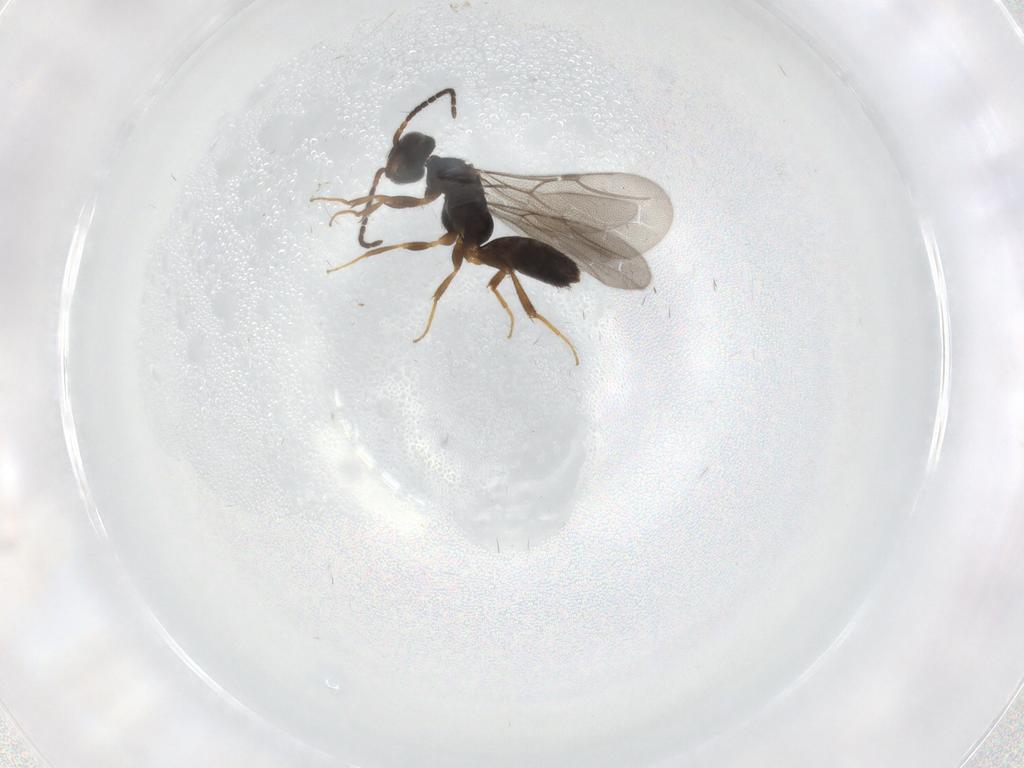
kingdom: Animalia
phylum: Arthropoda
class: Insecta
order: Hymenoptera
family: Bethylidae
